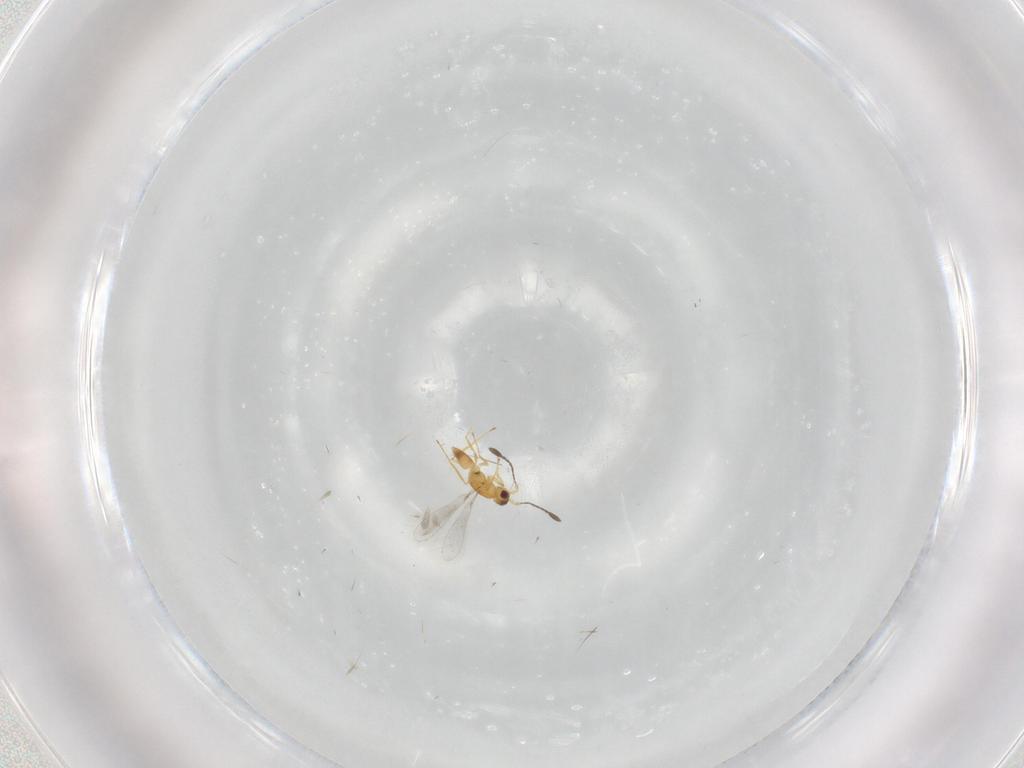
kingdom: Animalia
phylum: Arthropoda
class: Insecta
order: Hymenoptera
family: Mymaridae
